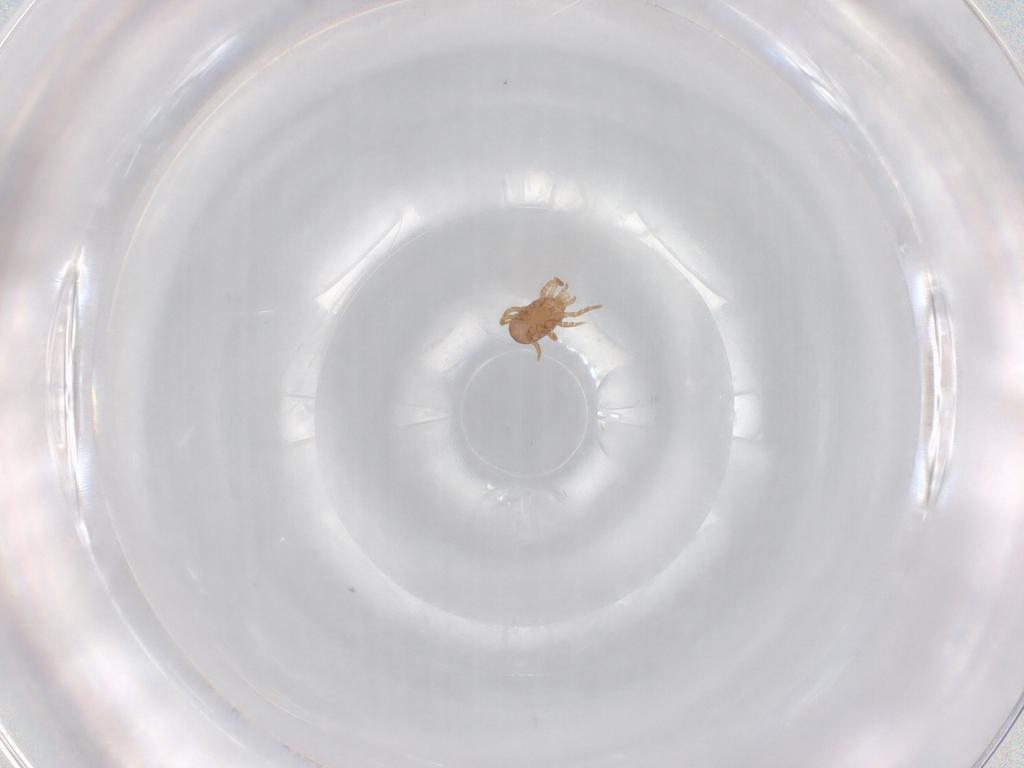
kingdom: Animalia
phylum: Arthropoda
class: Arachnida
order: Mesostigmata
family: Eviphididae
